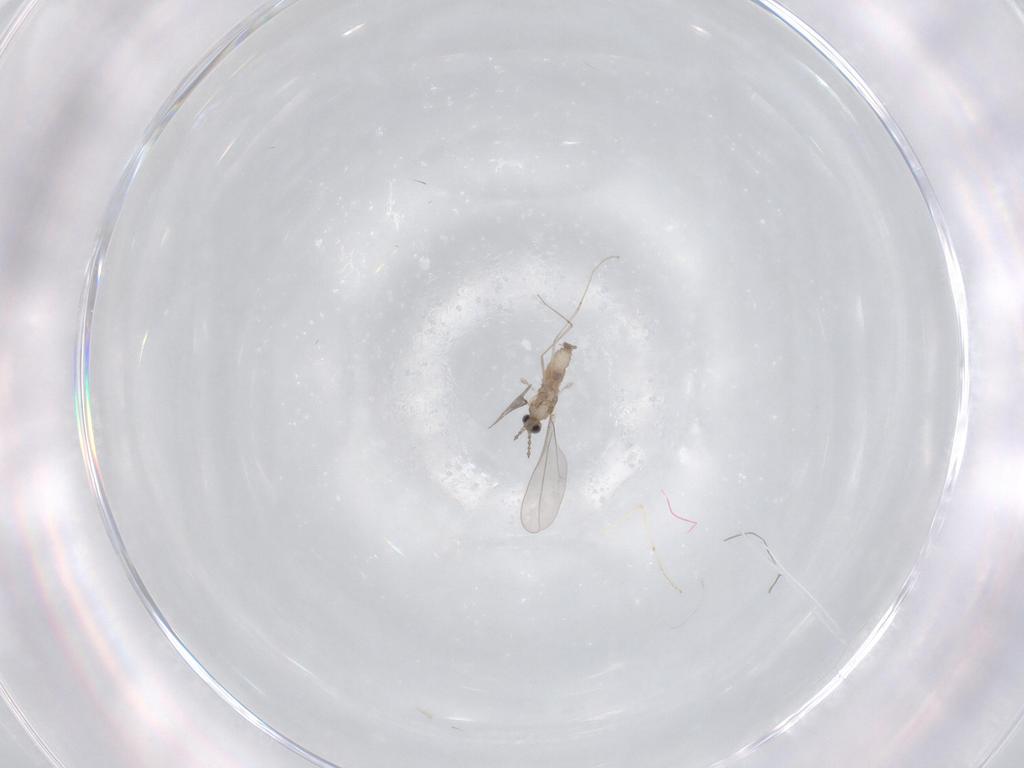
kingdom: Animalia
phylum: Arthropoda
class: Insecta
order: Diptera
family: Cecidomyiidae
